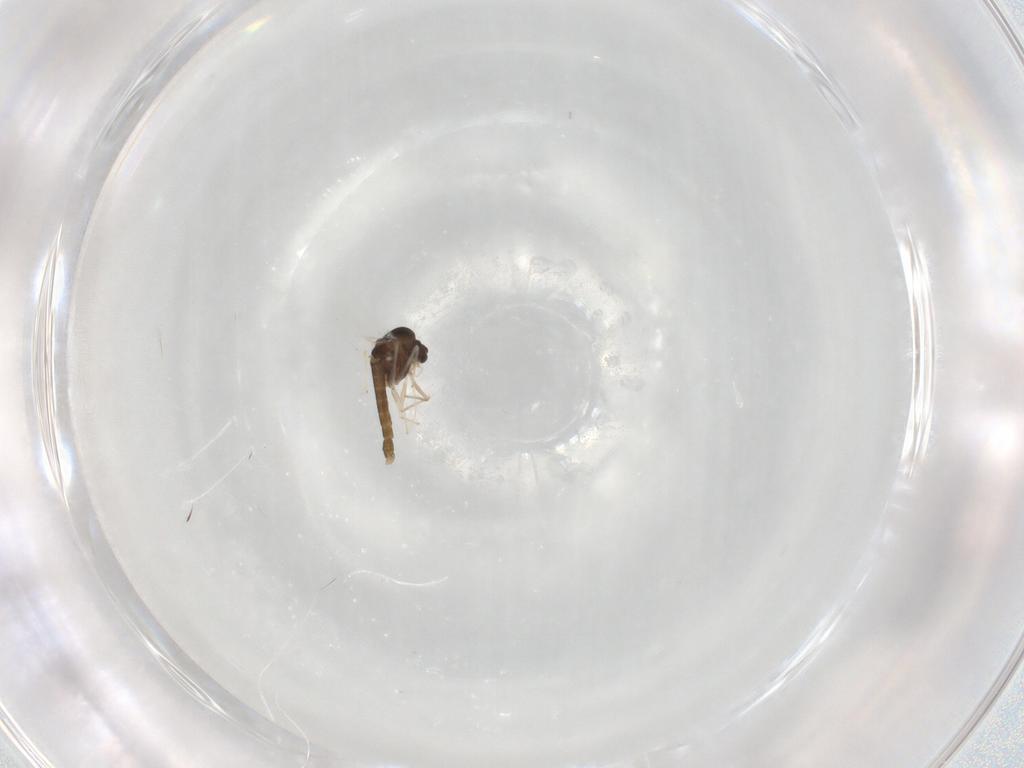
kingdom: Animalia
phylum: Arthropoda
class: Insecta
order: Diptera
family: Chironomidae
